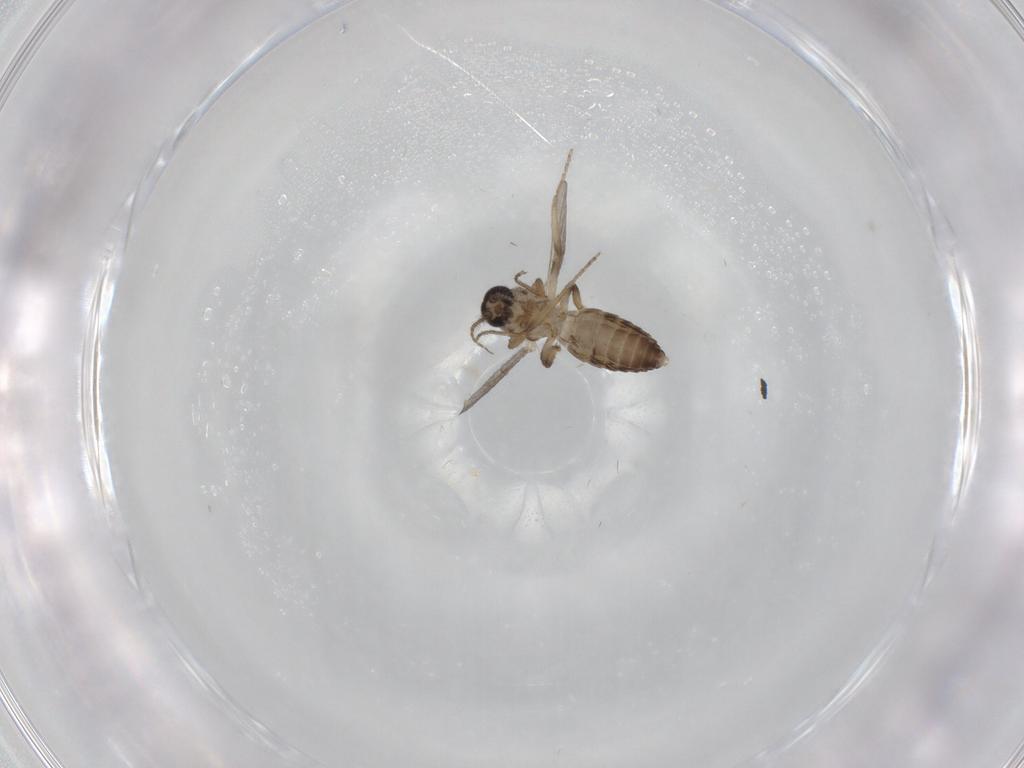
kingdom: Animalia
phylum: Arthropoda
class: Insecta
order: Diptera
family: Ceratopogonidae
